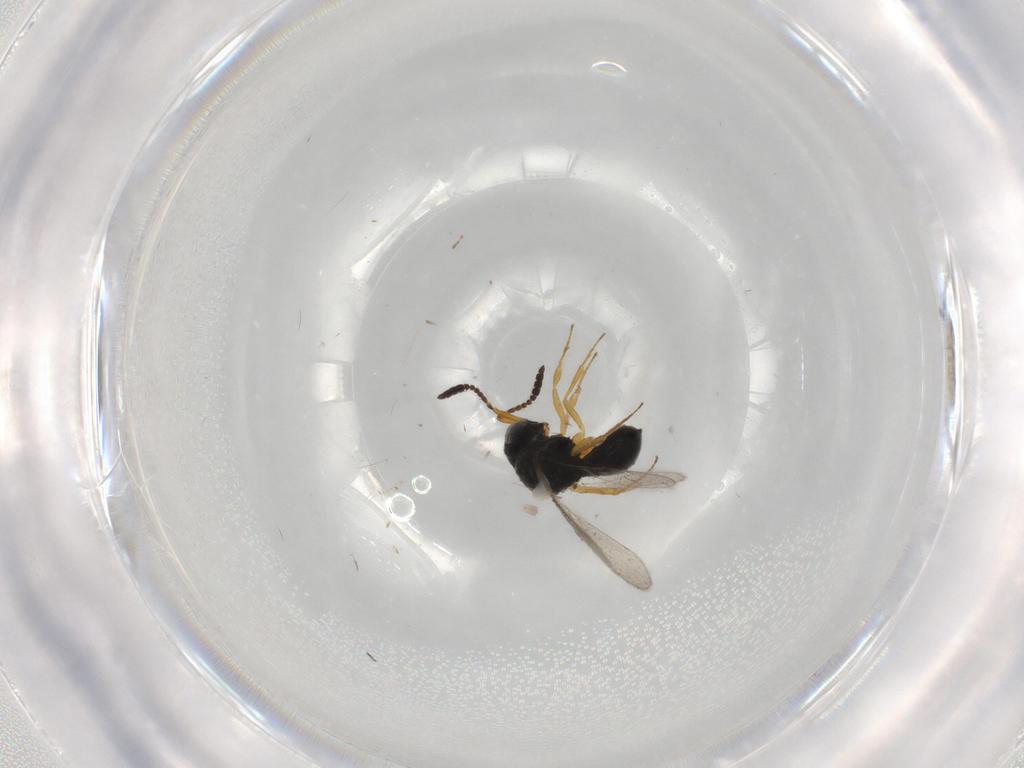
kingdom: Animalia
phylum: Arthropoda
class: Insecta
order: Hymenoptera
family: Scelionidae
